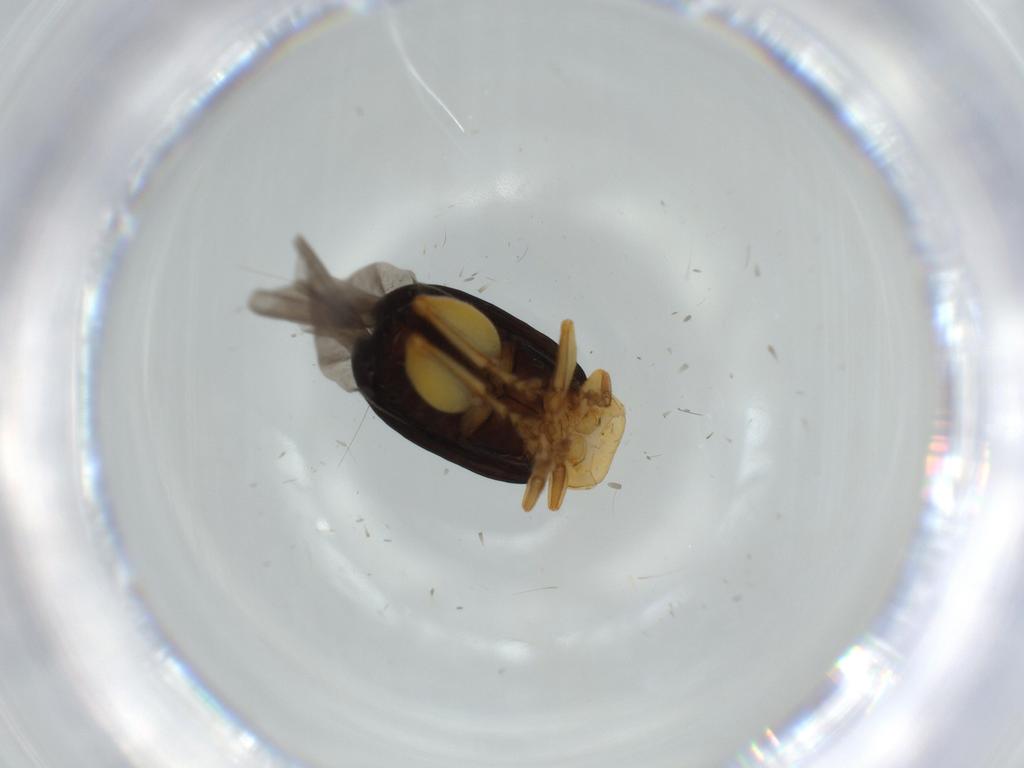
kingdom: Animalia
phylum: Arthropoda
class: Insecta
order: Coleoptera
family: Chrysomelidae
